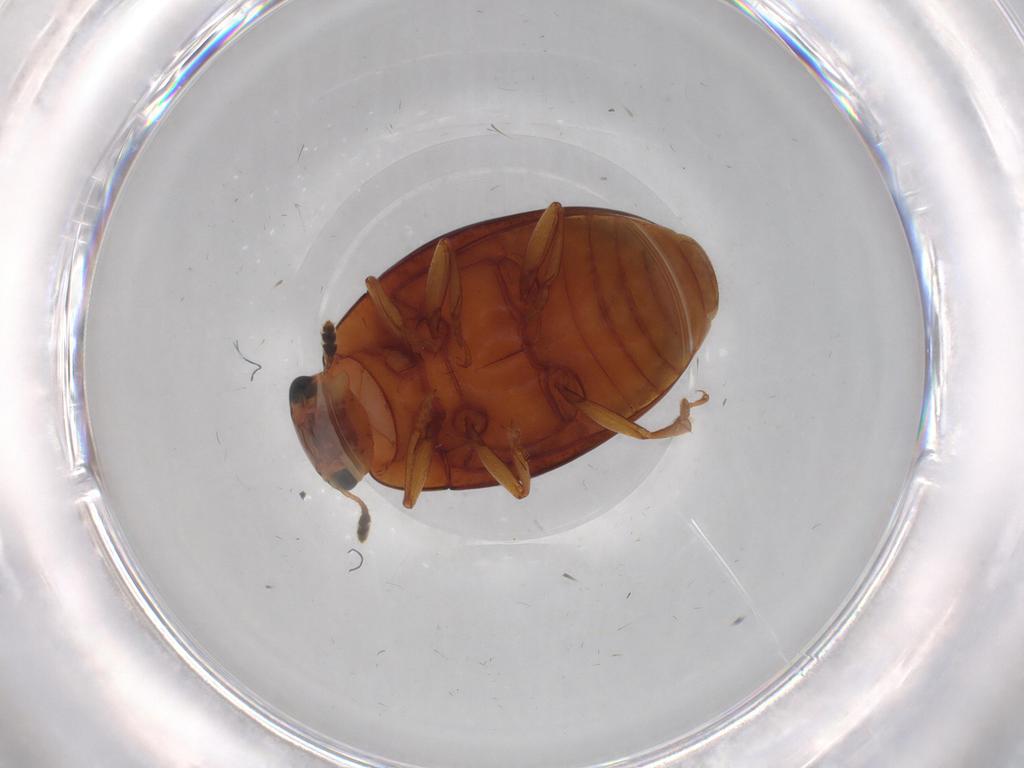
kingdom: Animalia
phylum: Arthropoda
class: Insecta
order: Coleoptera
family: Erotylidae
